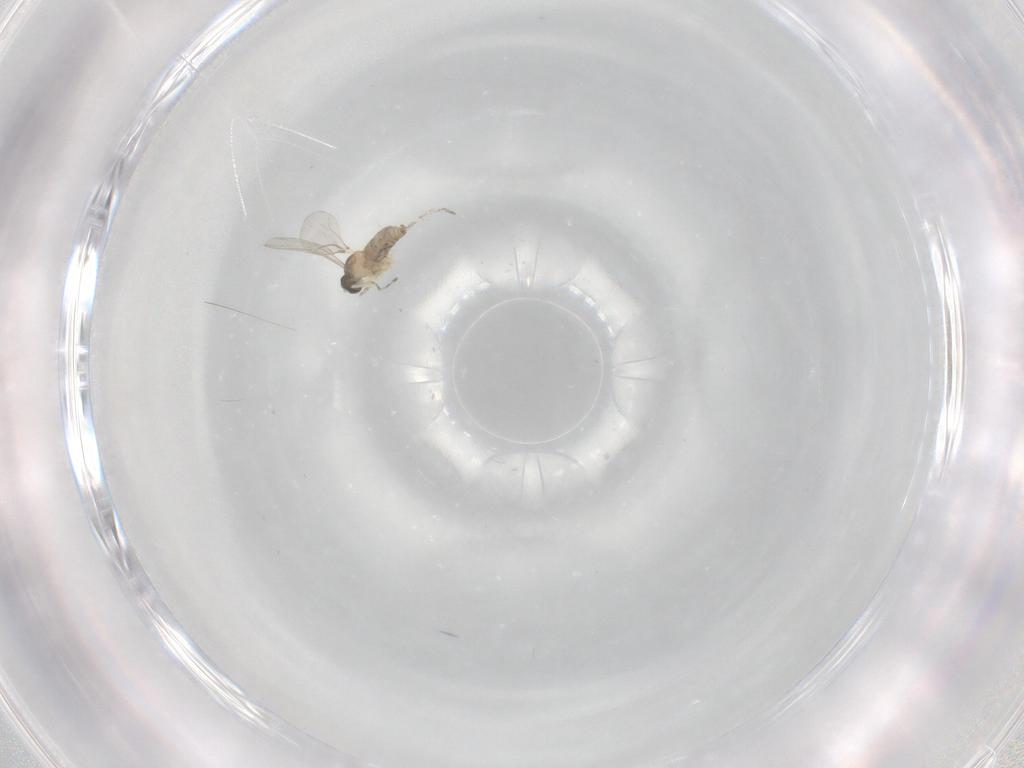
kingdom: Animalia
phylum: Arthropoda
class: Insecta
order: Diptera
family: Cecidomyiidae
